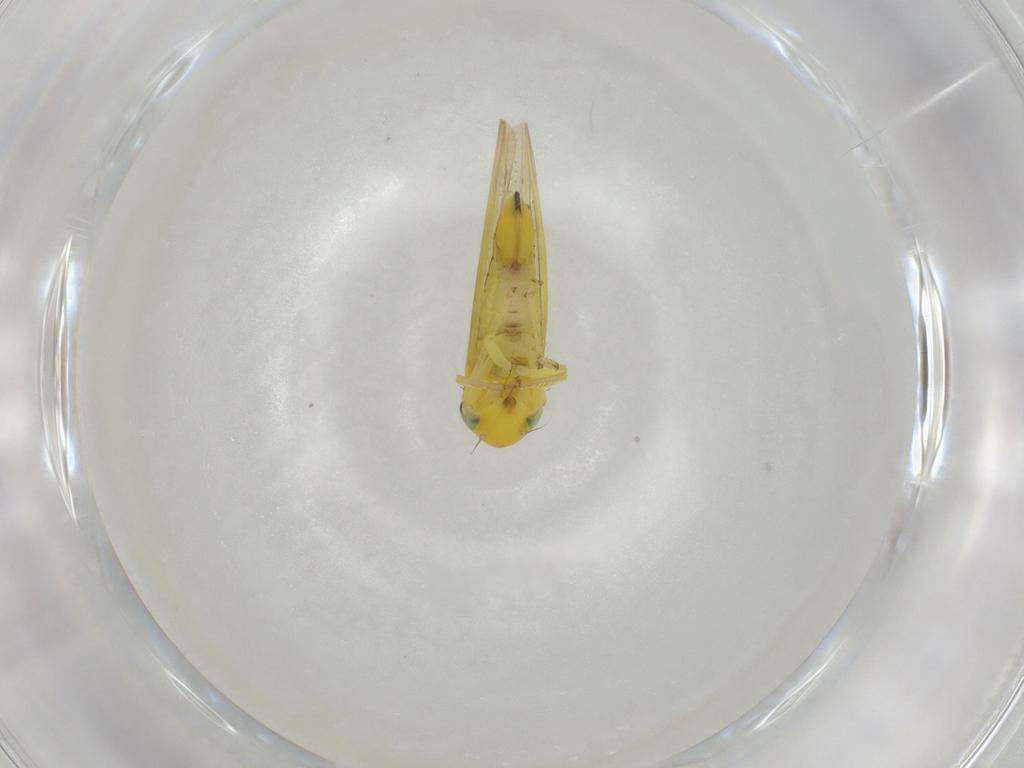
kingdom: Animalia
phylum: Arthropoda
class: Insecta
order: Hemiptera
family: Cicadellidae
